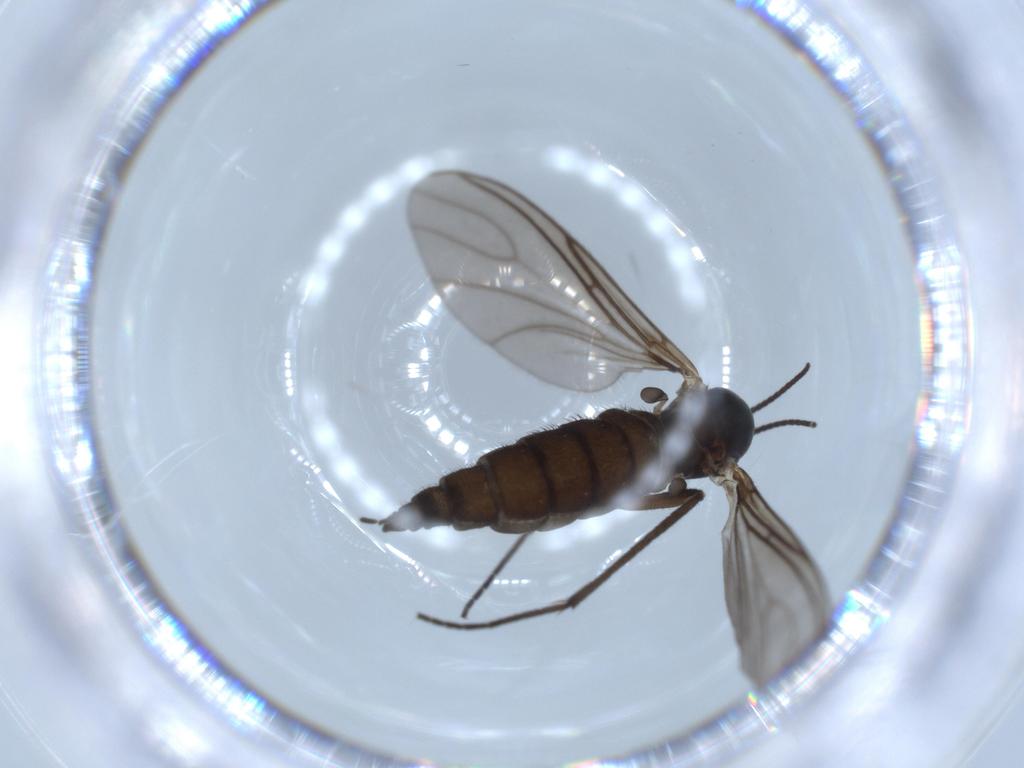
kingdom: Animalia
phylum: Arthropoda
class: Insecta
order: Diptera
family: Sciaridae
